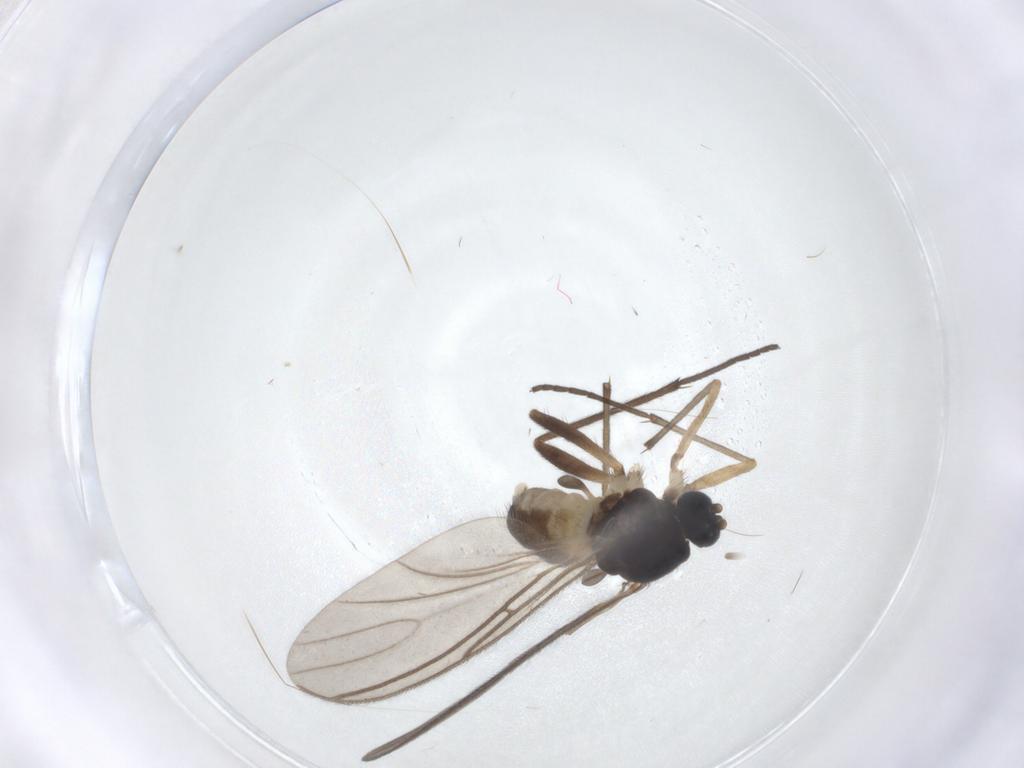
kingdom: Animalia
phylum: Arthropoda
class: Insecta
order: Diptera
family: Sciaridae
